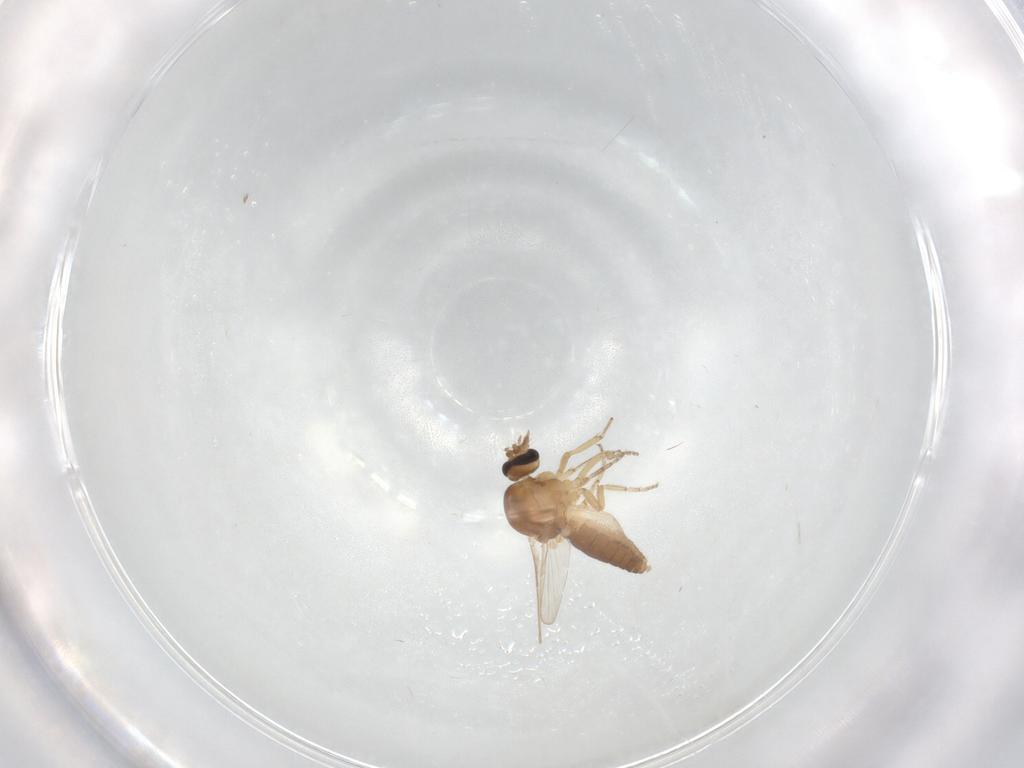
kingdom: Animalia
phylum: Arthropoda
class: Insecta
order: Diptera
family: Ceratopogonidae
